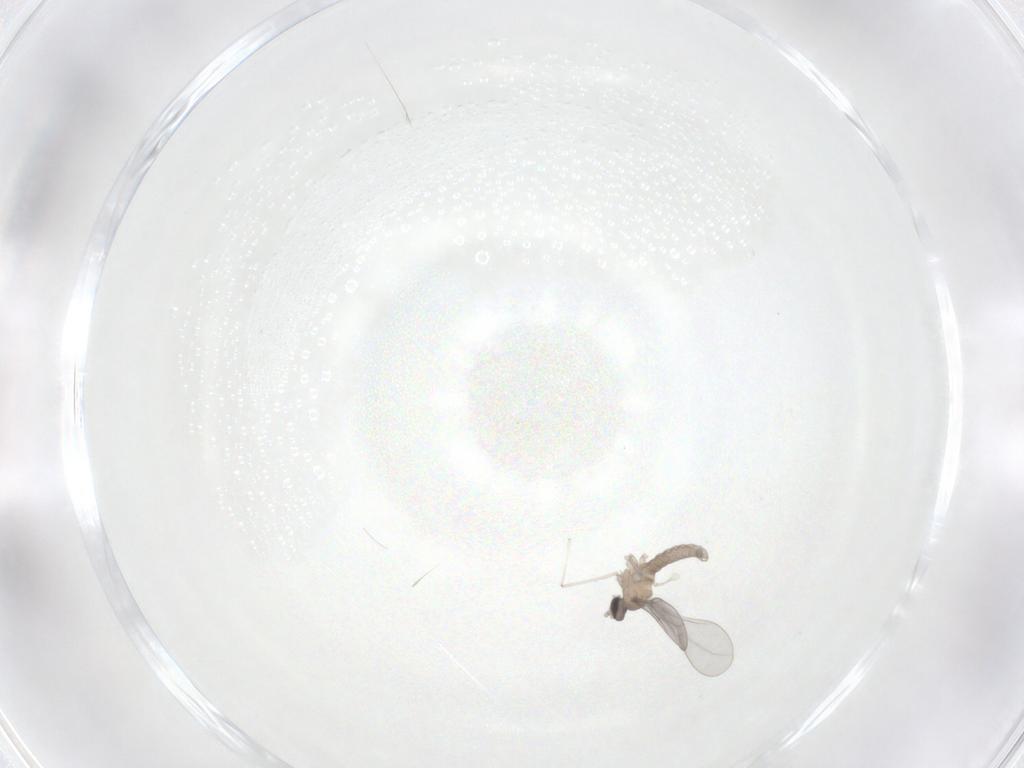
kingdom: Animalia
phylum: Arthropoda
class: Insecta
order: Diptera
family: Cecidomyiidae
